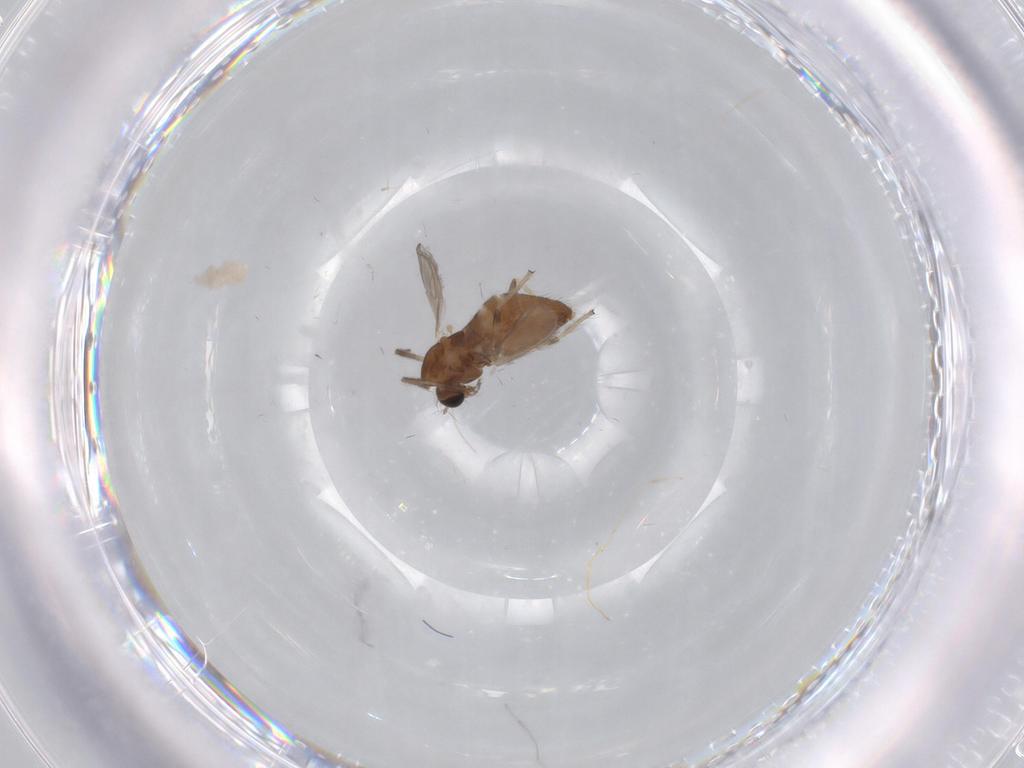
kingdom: Animalia
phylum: Arthropoda
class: Insecta
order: Diptera
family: Chironomidae
